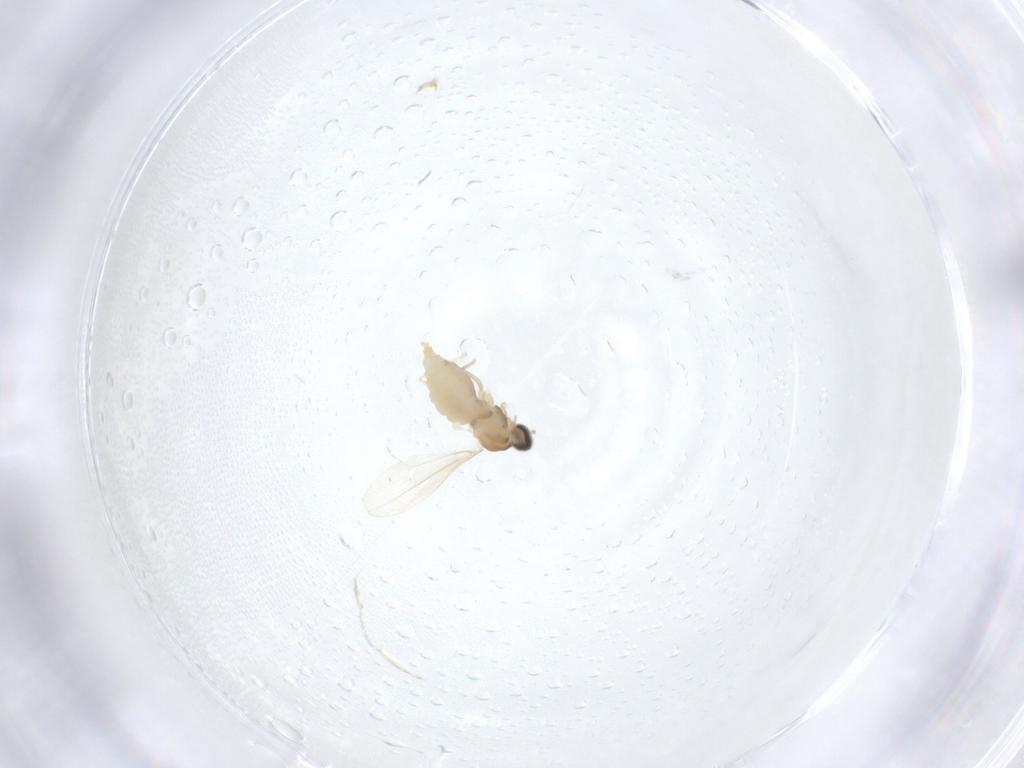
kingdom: Animalia
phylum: Arthropoda
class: Insecta
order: Diptera
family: Cecidomyiidae
